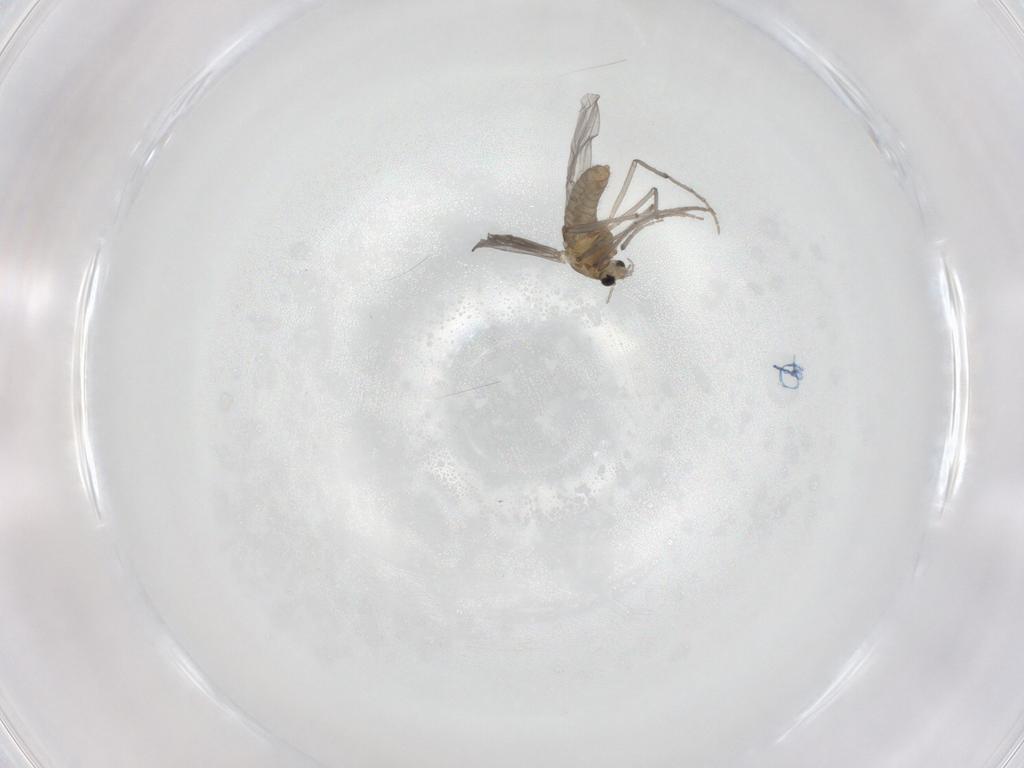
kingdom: Animalia
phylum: Arthropoda
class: Insecta
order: Diptera
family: Chironomidae
